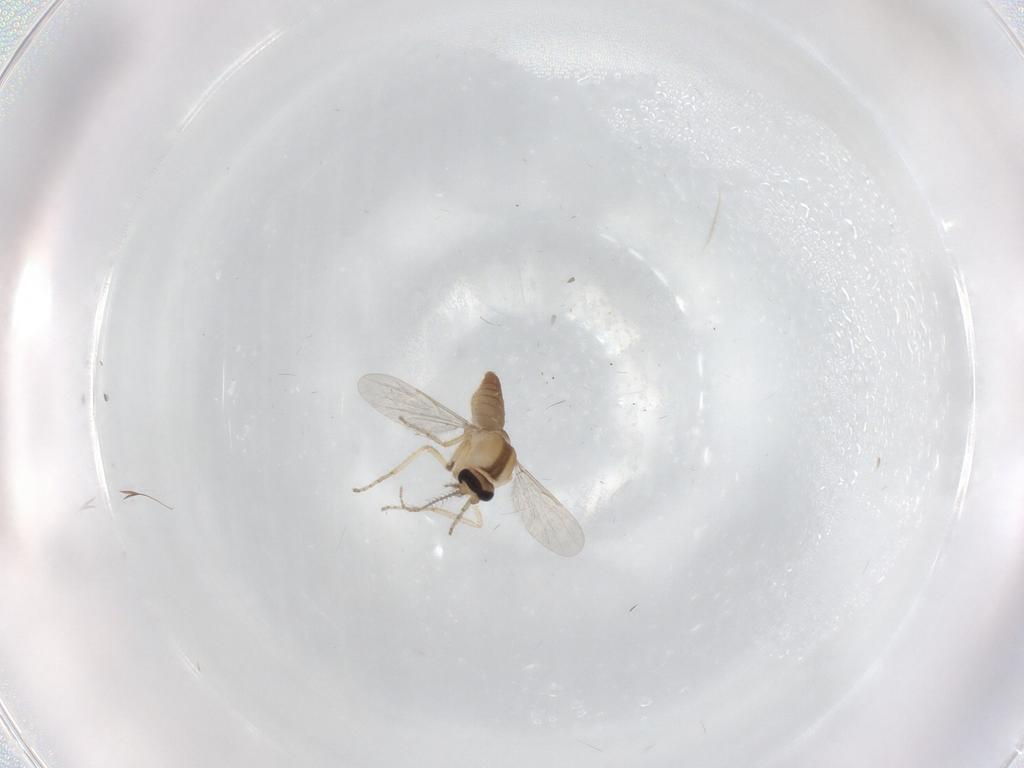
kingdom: Animalia
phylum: Arthropoda
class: Insecta
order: Diptera
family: Ceratopogonidae
